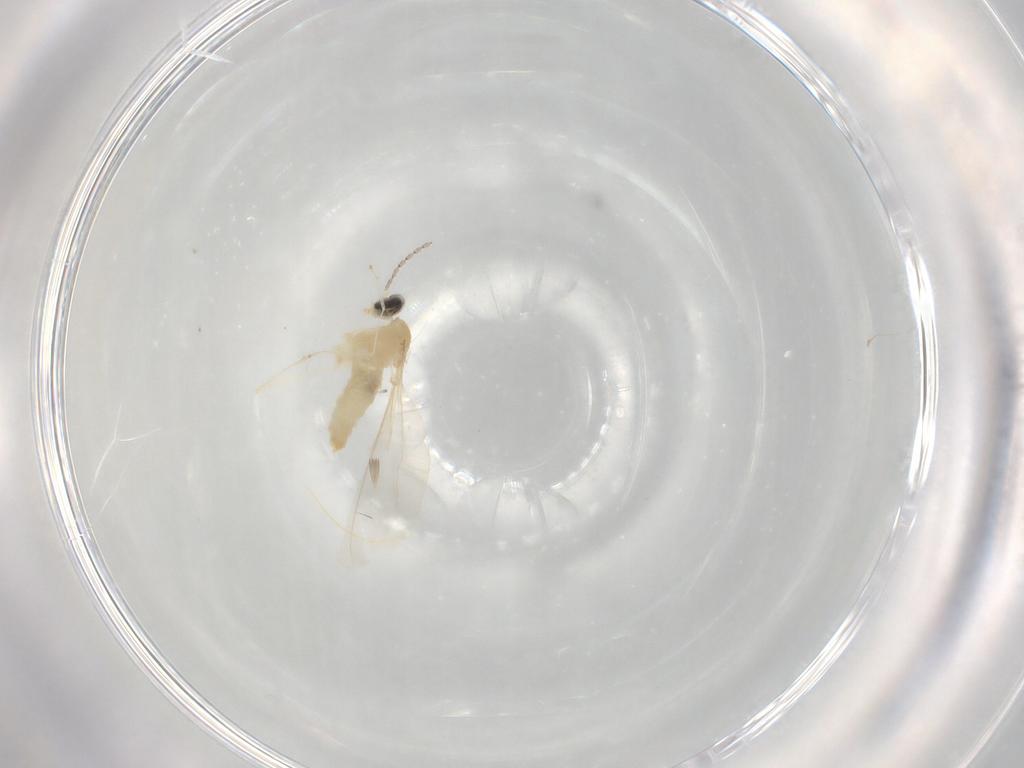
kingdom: Animalia
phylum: Arthropoda
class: Insecta
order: Diptera
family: Cecidomyiidae
